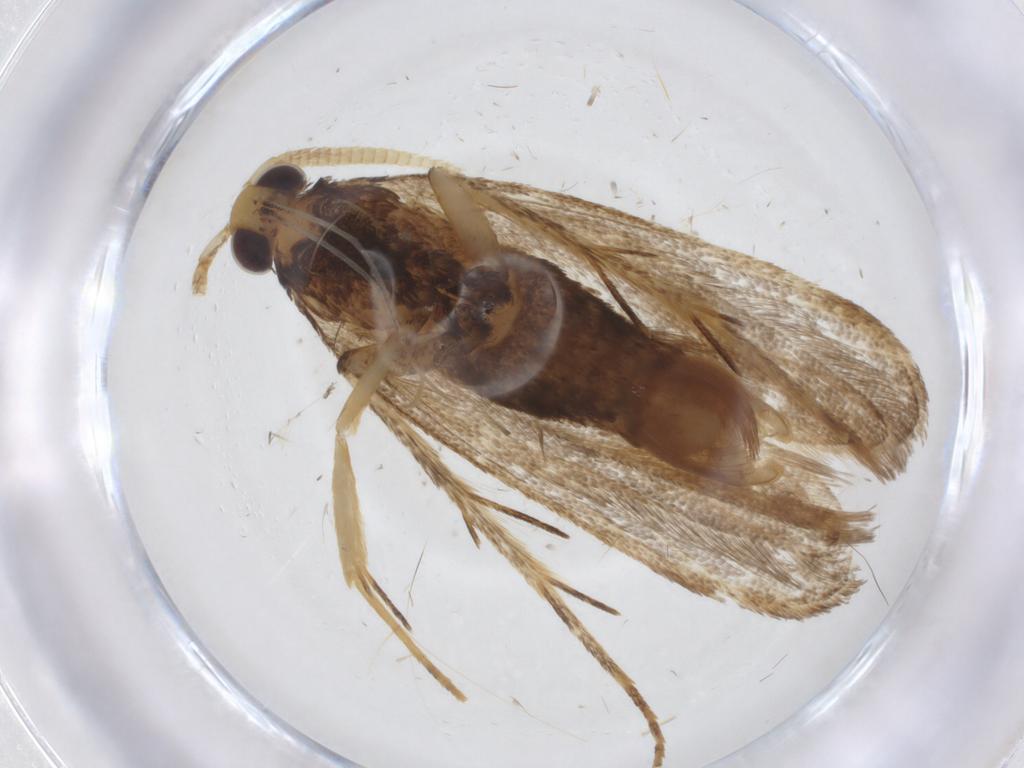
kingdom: Animalia
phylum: Arthropoda
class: Insecta
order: Lepidoptera
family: Lecithoceridae
